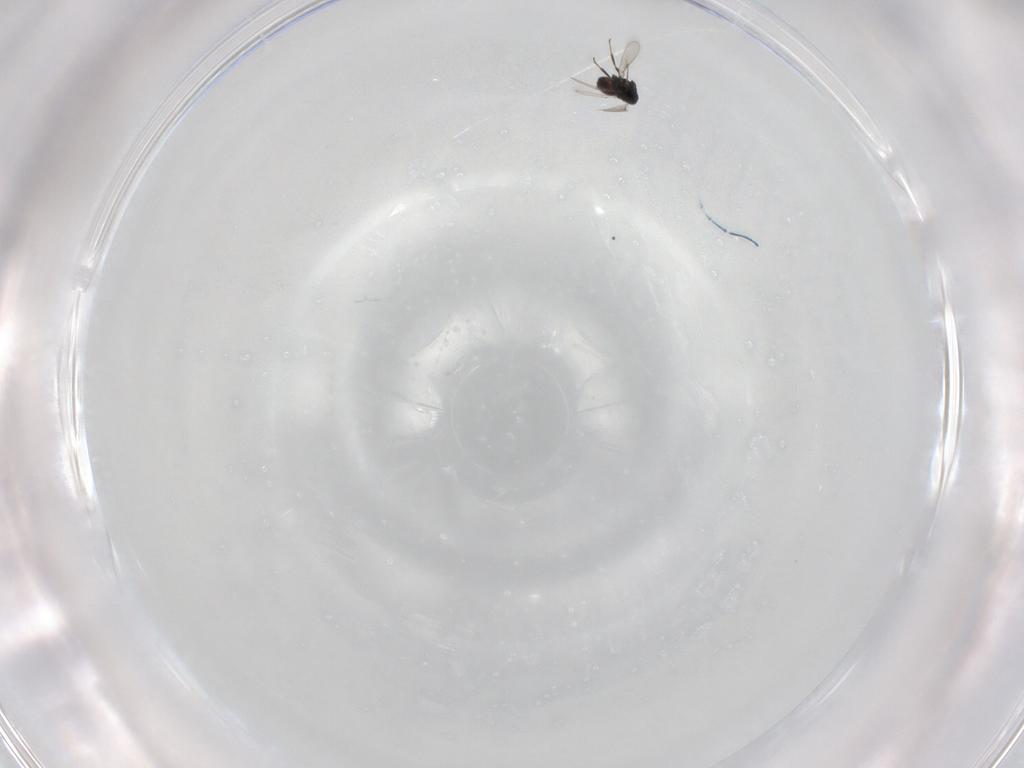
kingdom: Animalia
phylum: Arthropoda
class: Insecta
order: Hymenoptera
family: Scelionidae
